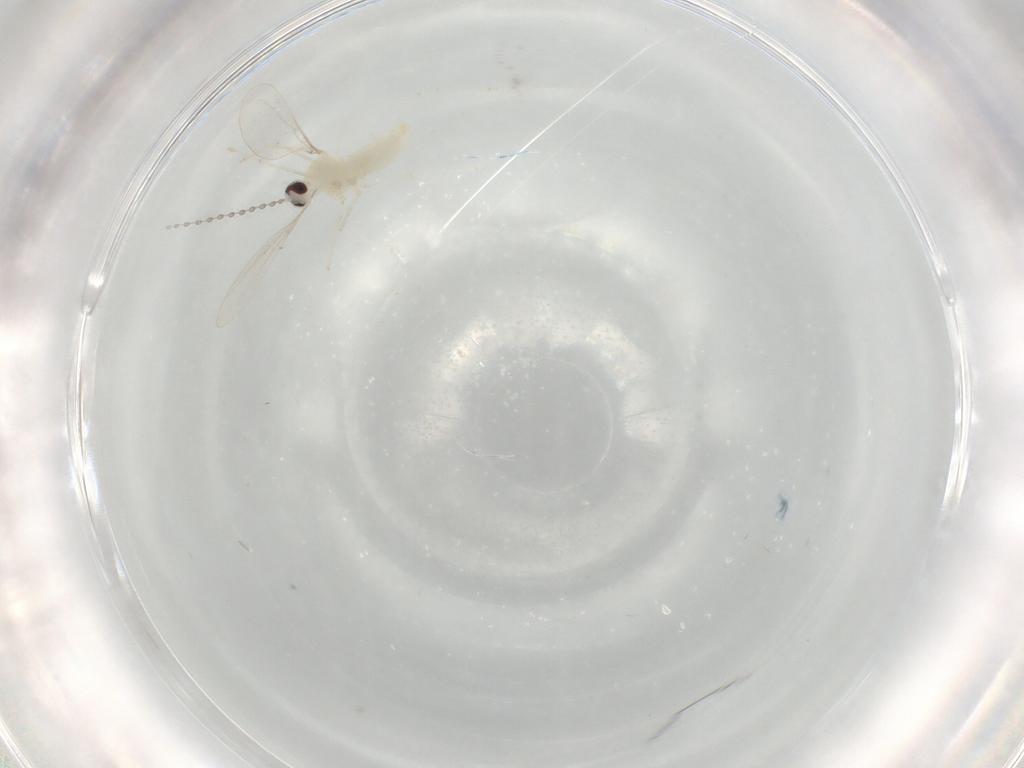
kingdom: Animalia
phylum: Arthropoda
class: Insecta
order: Diptera
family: Cecidomyiidae
